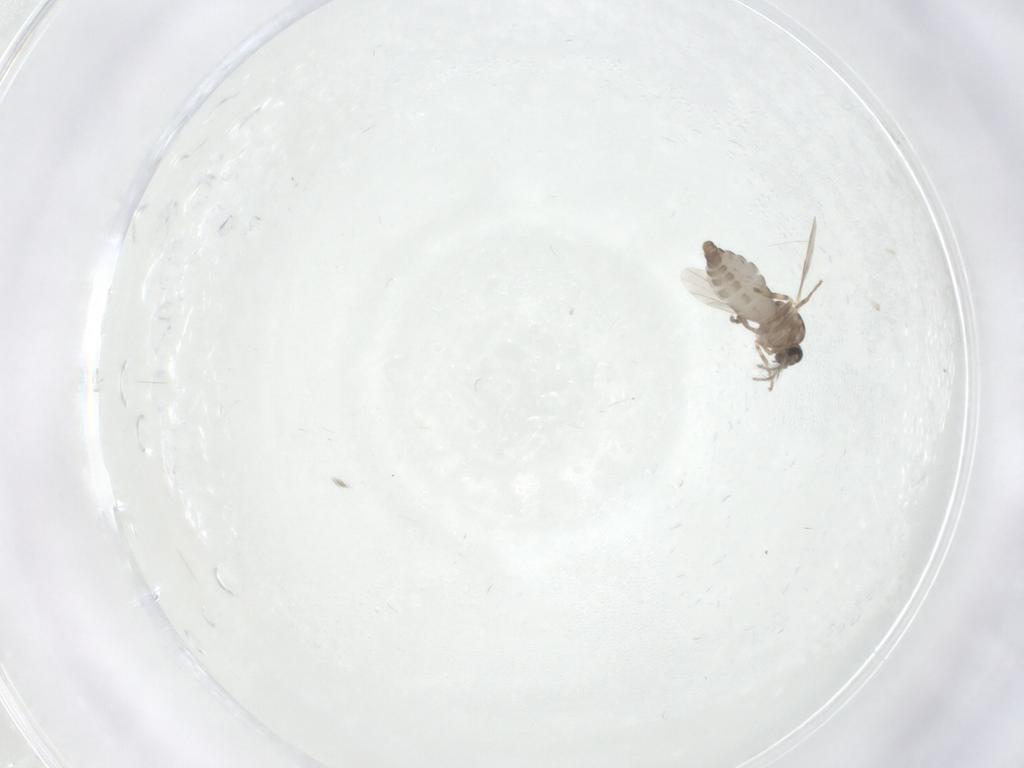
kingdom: Animalia
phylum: Arthropoda
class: Insecta
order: Diptera
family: Ceratopogonidae
